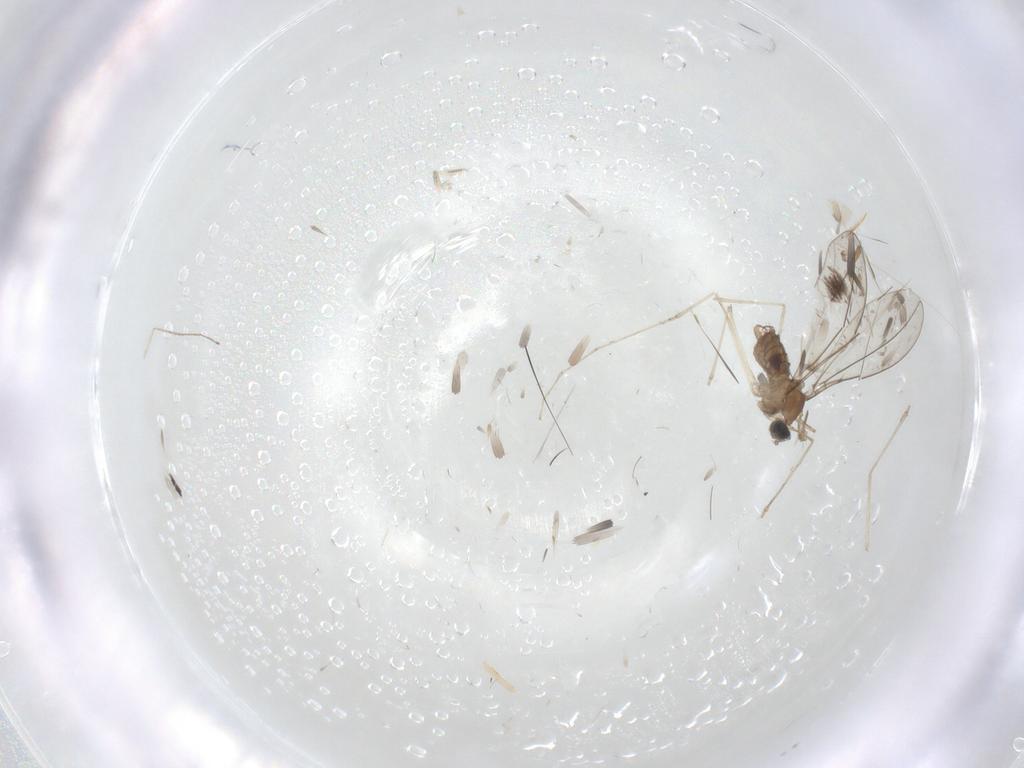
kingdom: Animalia
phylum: Arthropoda
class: Insecta
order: Diptera
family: Cecidomyiidae
